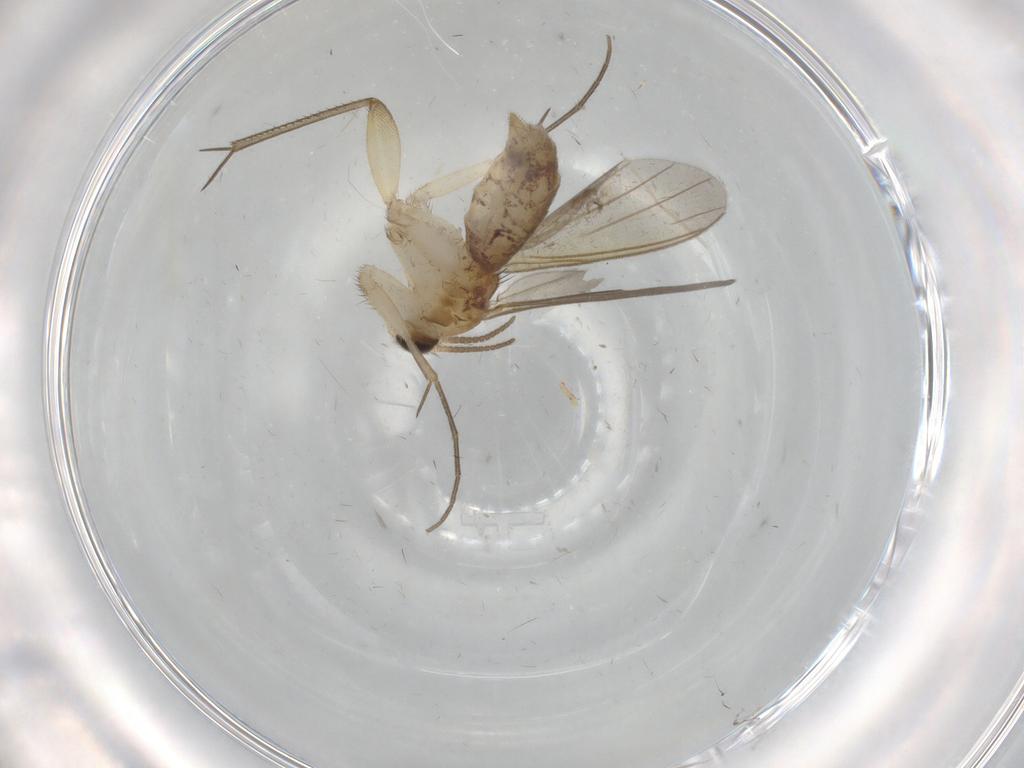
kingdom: Animalia
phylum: Arthropoda
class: Insecta
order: Diptera
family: Mycetophilidae
